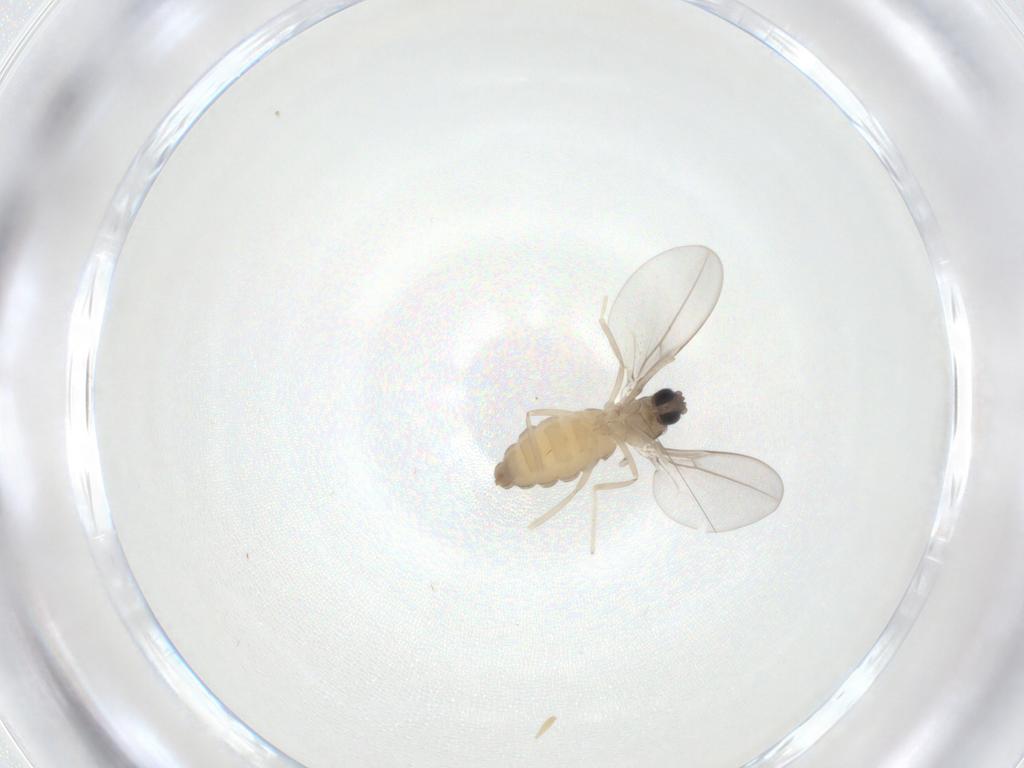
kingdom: Animalia
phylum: Arthropoda
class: Insecta
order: Diptera
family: Cecidomyiidae
